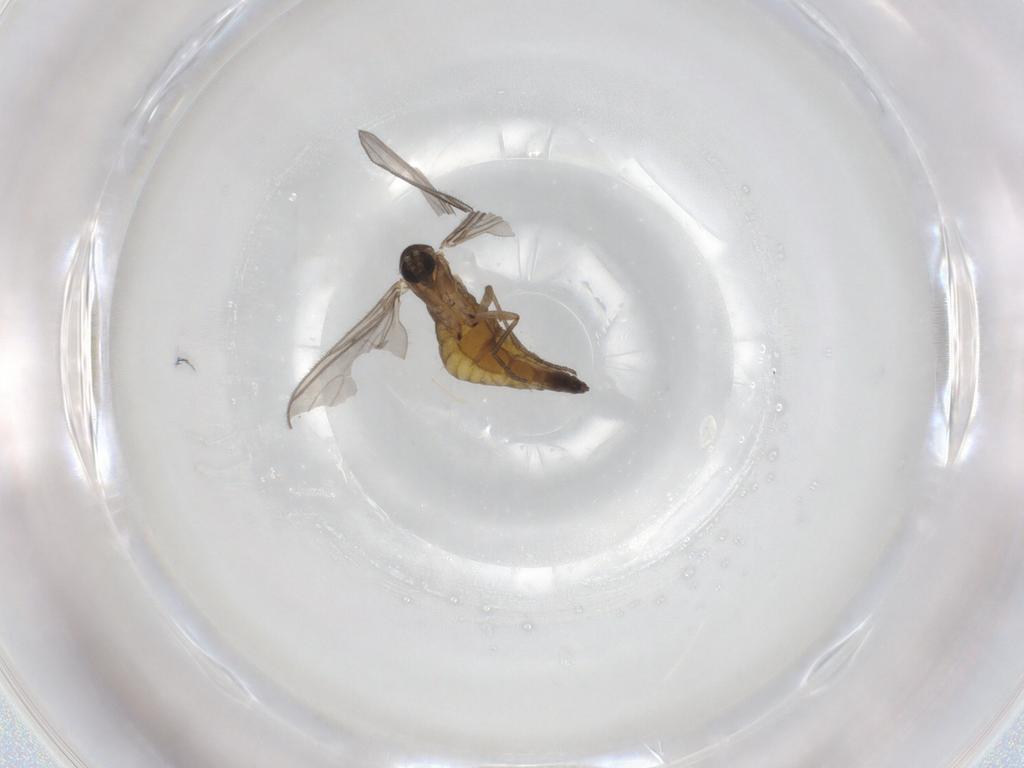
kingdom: Animalia
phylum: Arthropoda
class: Insecta
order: Diptera
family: Sciaridae
